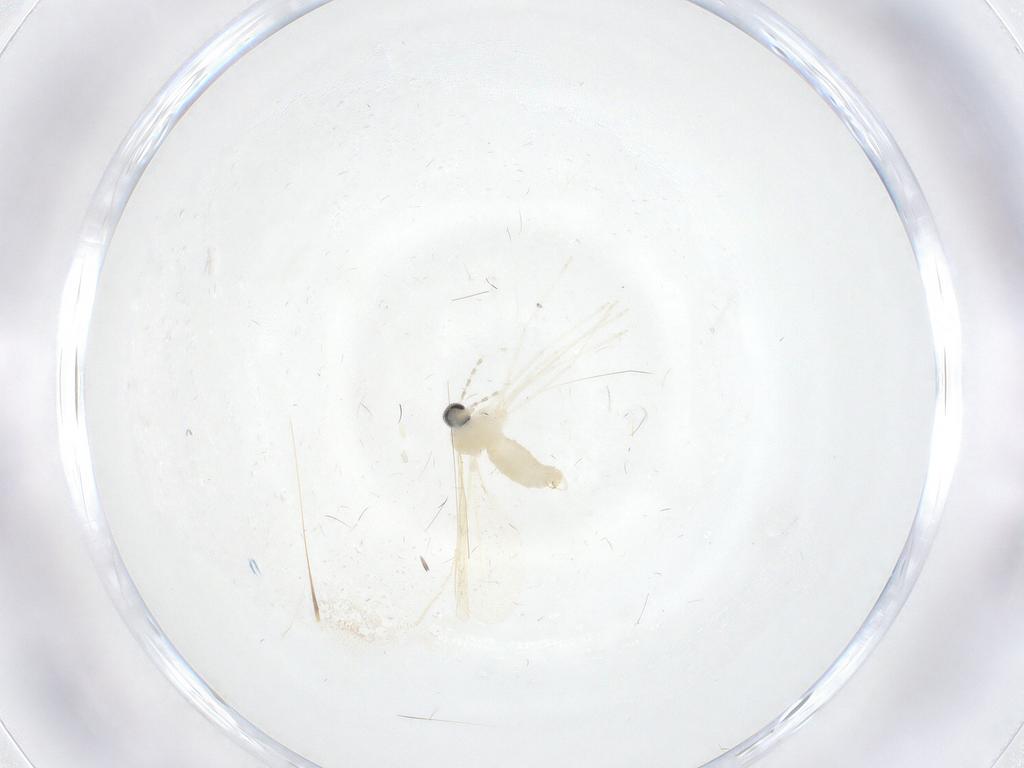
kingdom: Animalia
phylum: Arthropoda
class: Insecta
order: Diptera
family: Cecidomyiidae
